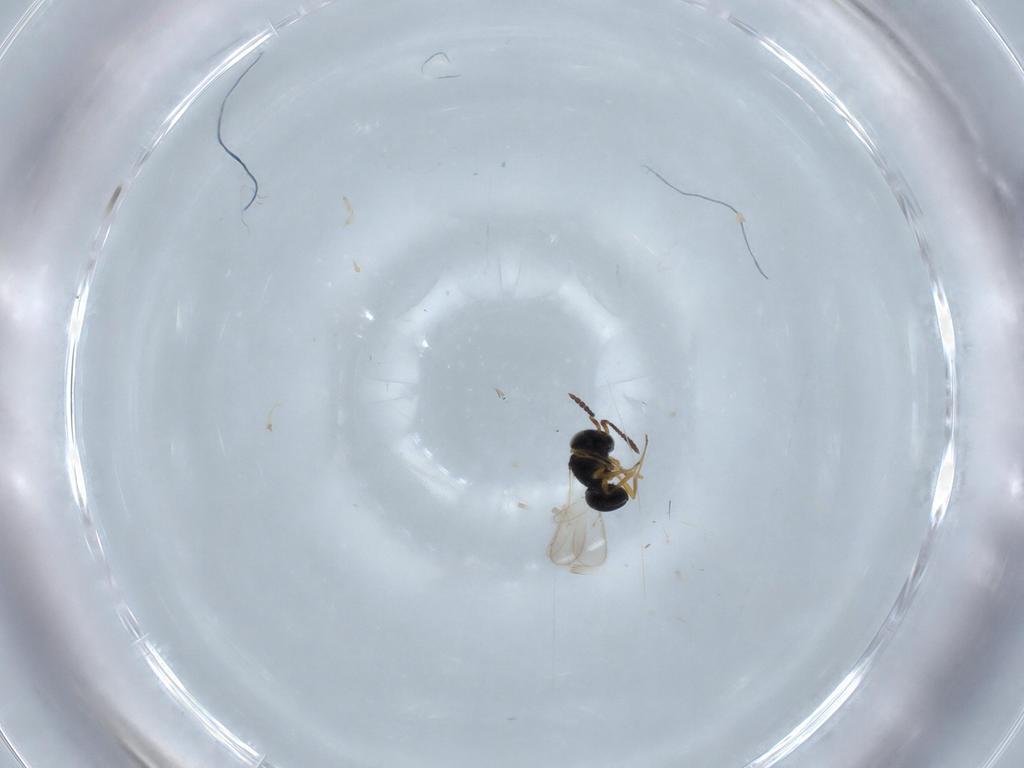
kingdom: Animalia
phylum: Arthropoda
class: Insecta
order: Hymenoptera
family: Scelionidae
